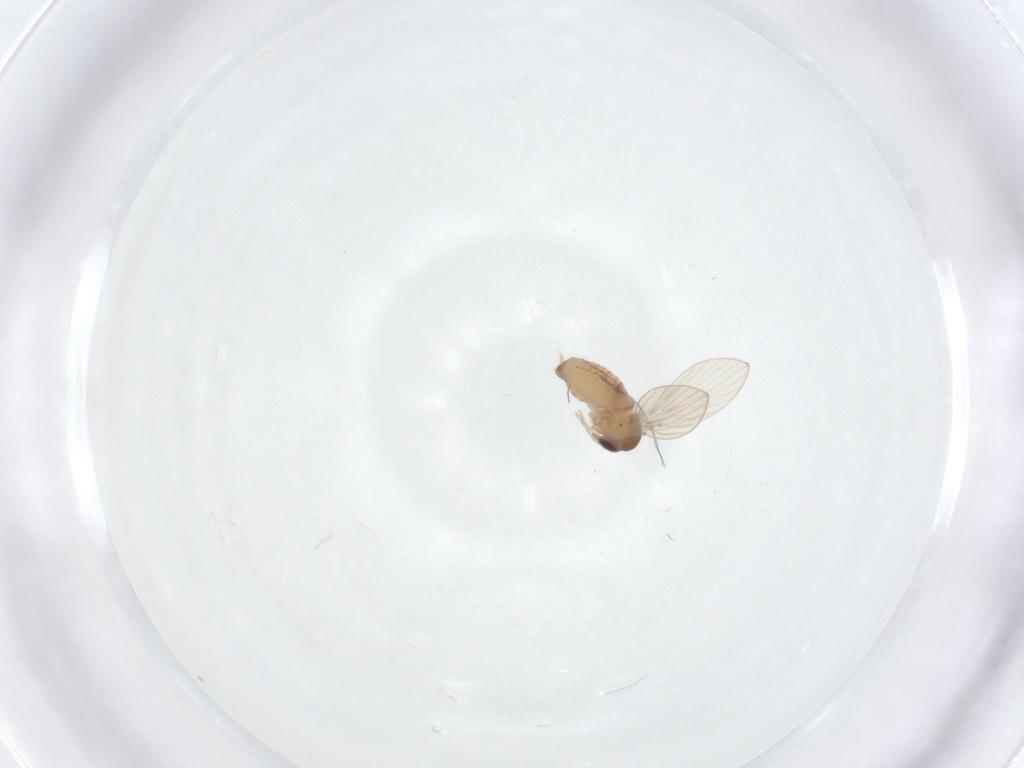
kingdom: Animalia
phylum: Arthropoda
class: Insecta
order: Diptera
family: Psychodidae
